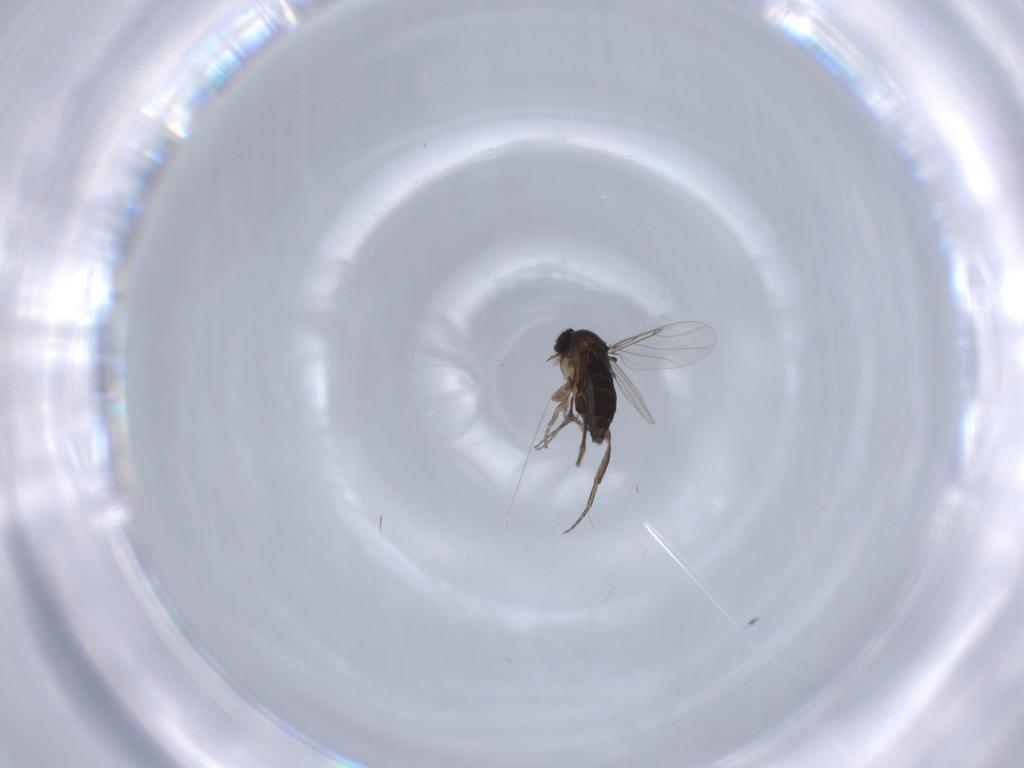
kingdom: Animalia
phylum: Arthropoda
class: Insecta
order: Diptera
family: Phoridae
